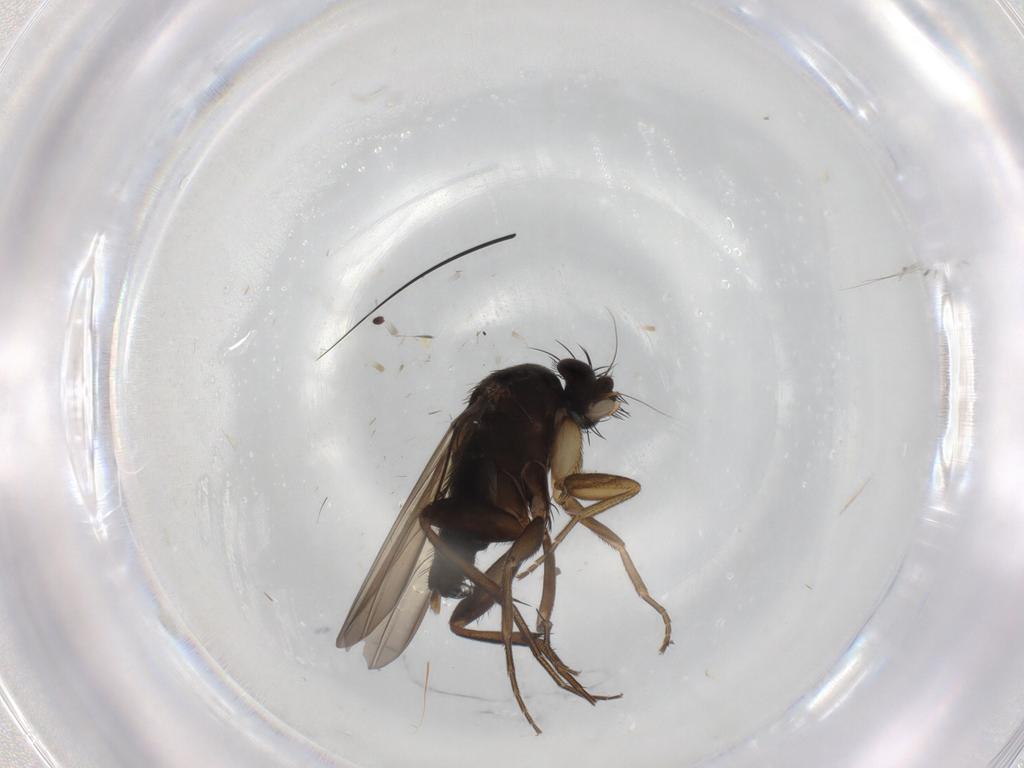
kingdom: Animalia
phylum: Arthropoda
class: Insecta
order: Diptera
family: Phoridae
